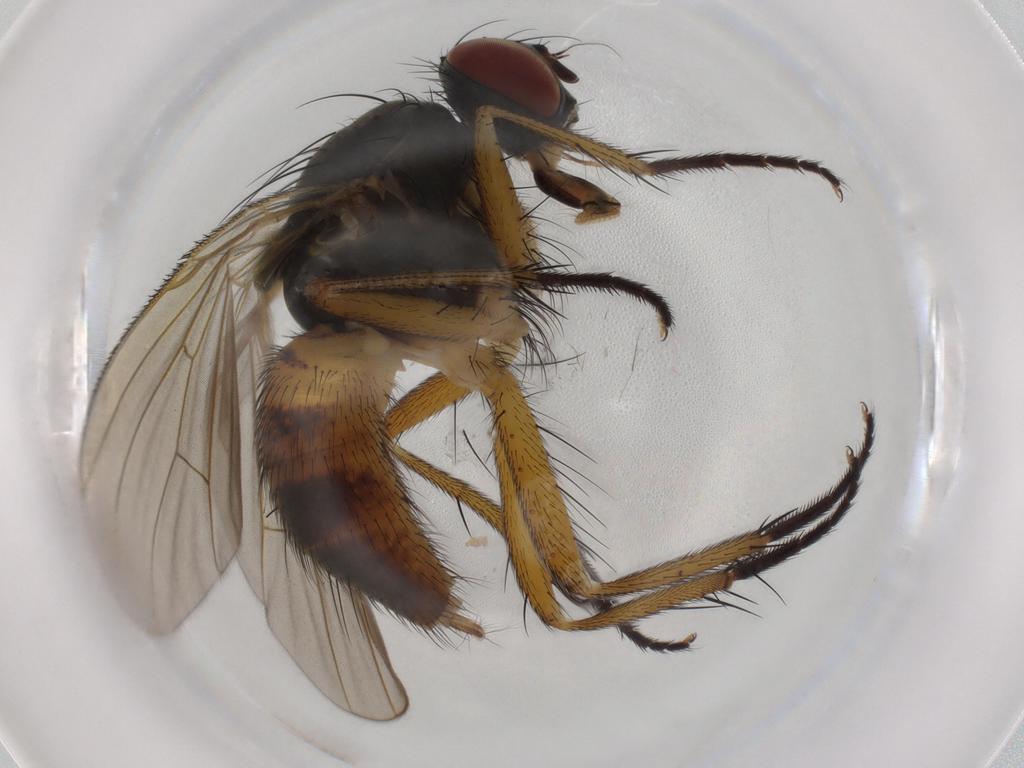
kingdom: Animalia
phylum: Arthropoda
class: Insecta
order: Diptera
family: Muscidae
